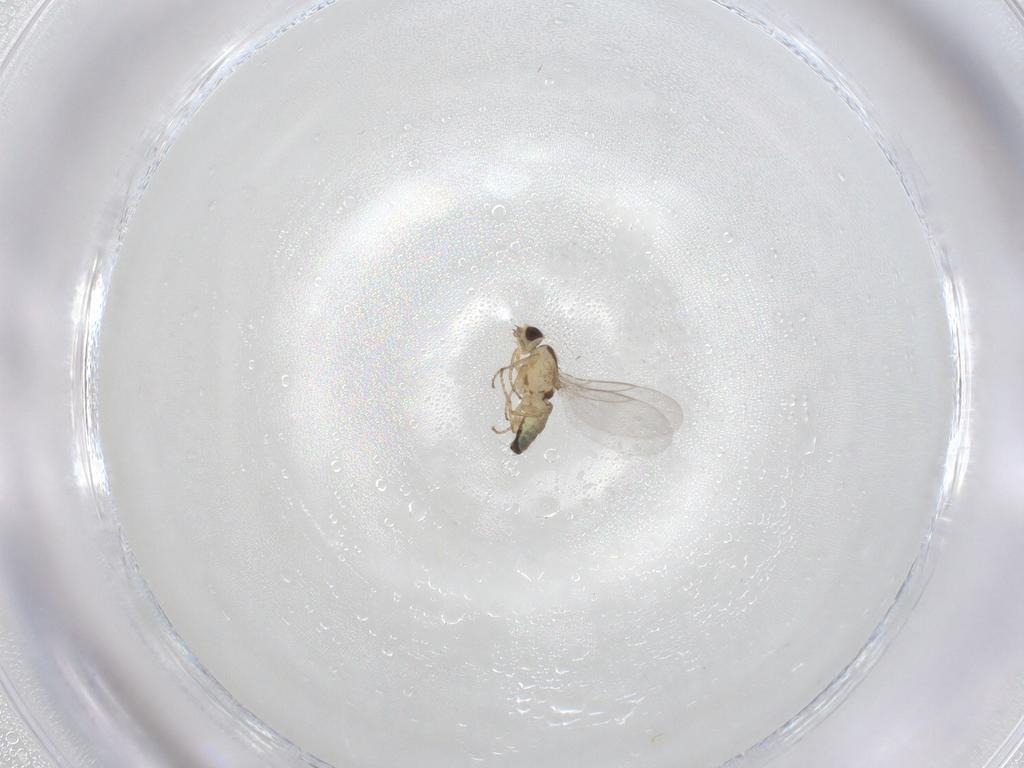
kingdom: Animalia
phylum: Arthropoda
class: Insecta
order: Diptera
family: Agromyzidae
